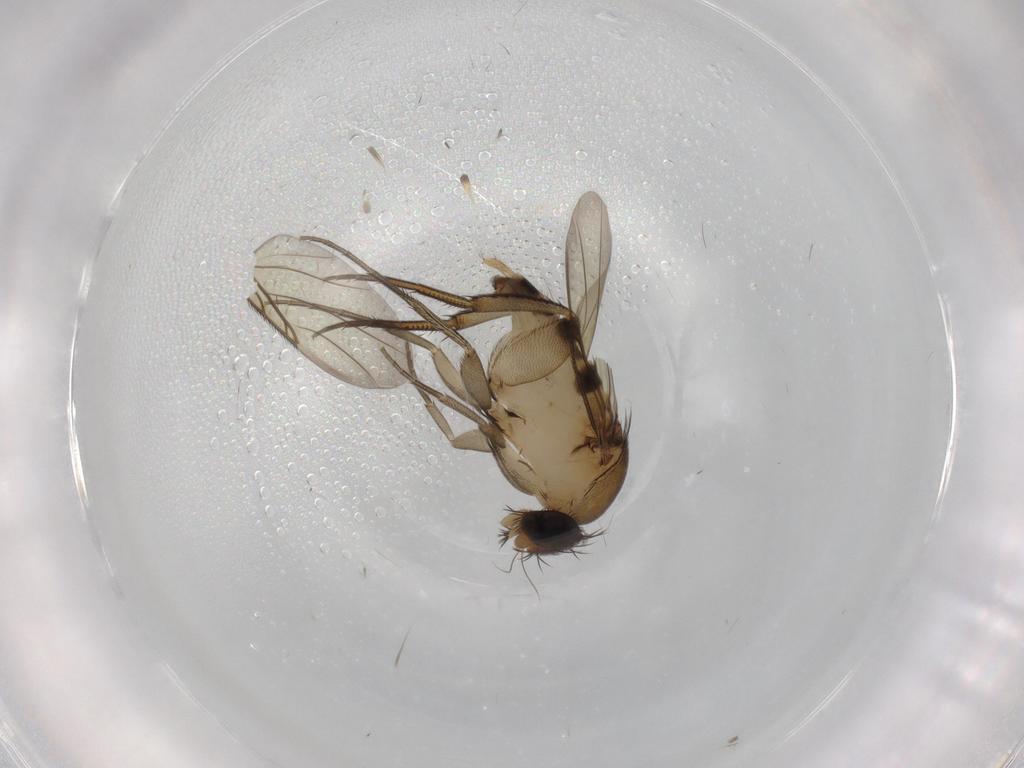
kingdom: Animalia
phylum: Arthropoda
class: Insecta
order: Diptera
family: Phoridae
